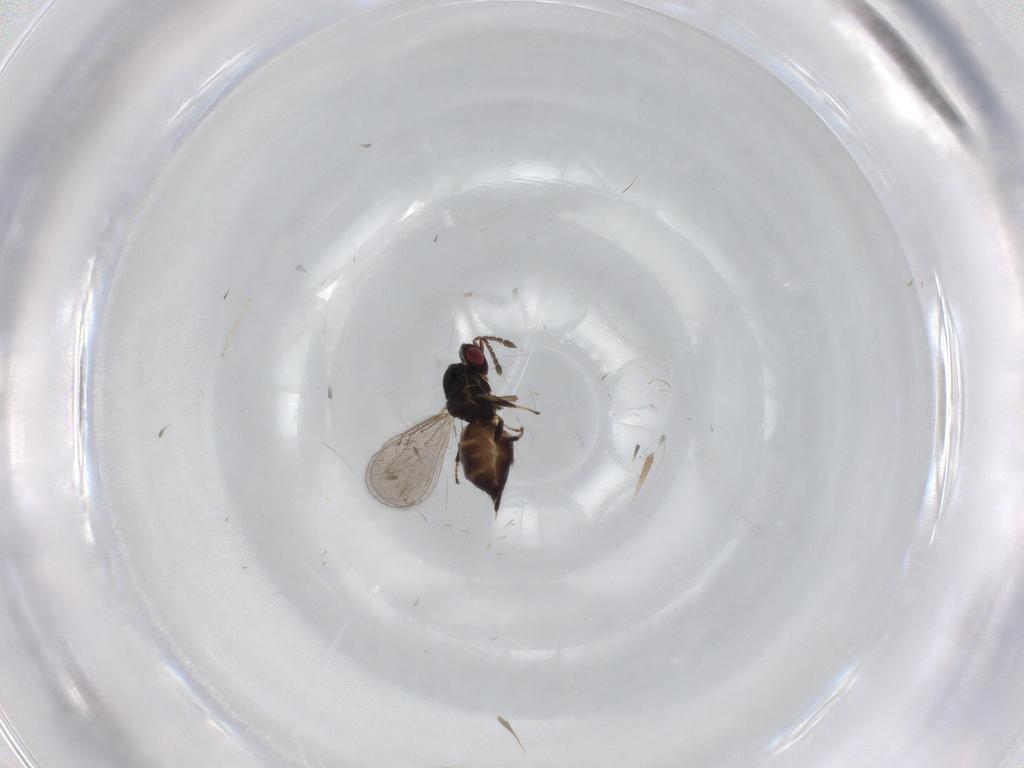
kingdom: Animalia
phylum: Arthropoda
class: Insecta
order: Hymenoptera
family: Eulophidae
